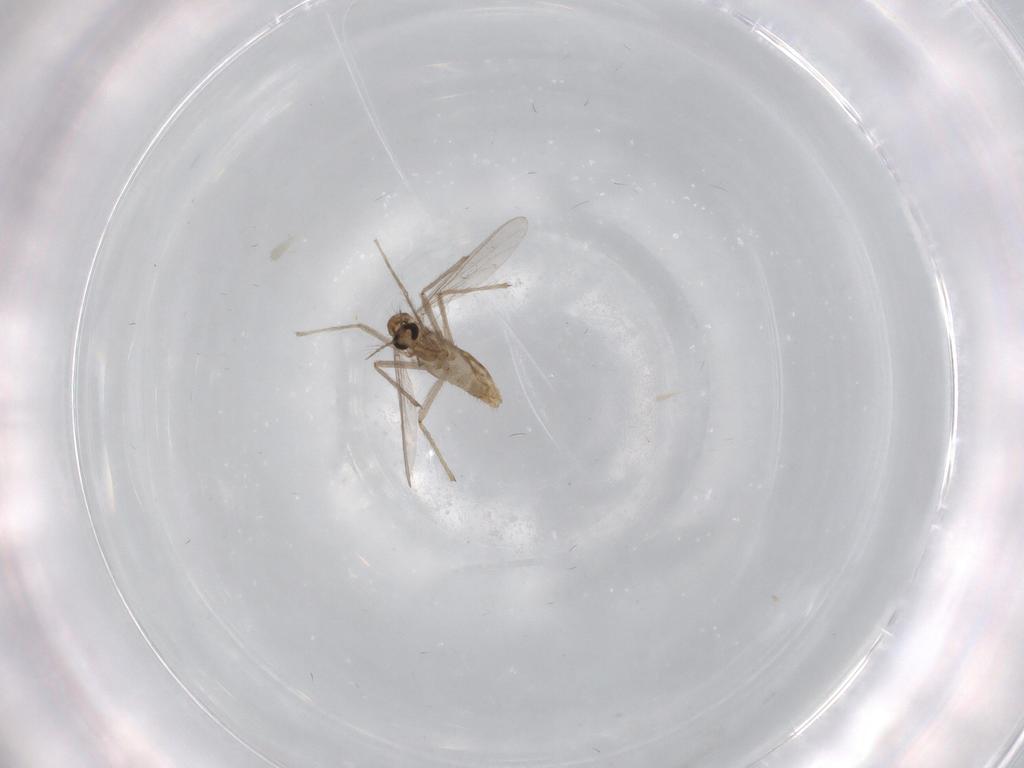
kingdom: Animalia
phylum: Arthropoda
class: Insecta
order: Diptera
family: Chironomidae
